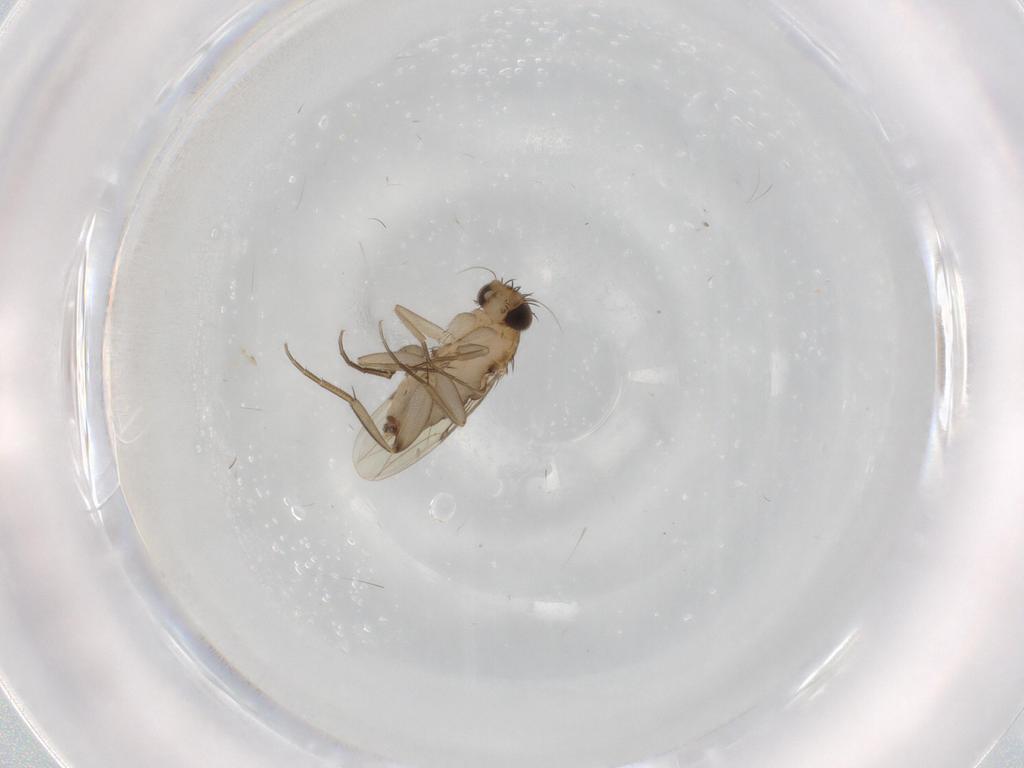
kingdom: Animalia
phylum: Arthropoda
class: Insecta
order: Diptera
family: Phoridae
